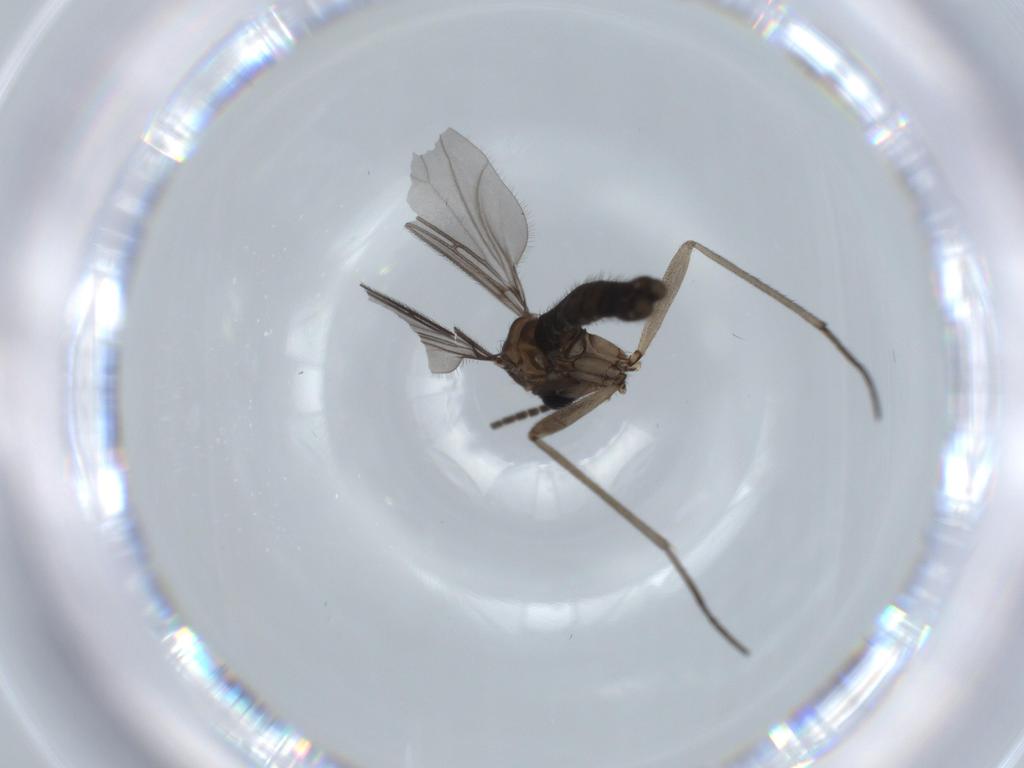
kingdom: Animalia
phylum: Arthropoda
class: Insecta
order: Diptera
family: Sciaridae
